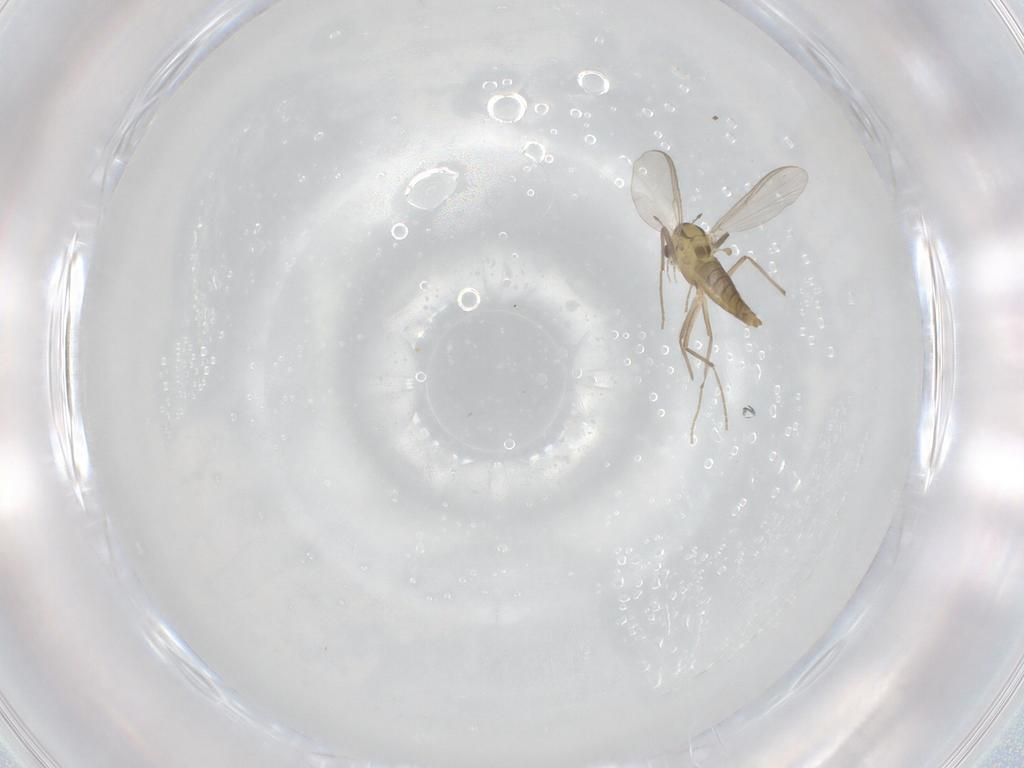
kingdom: Animalia
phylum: Arthropoda
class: Insecta
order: Diptera
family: Chironomidae
